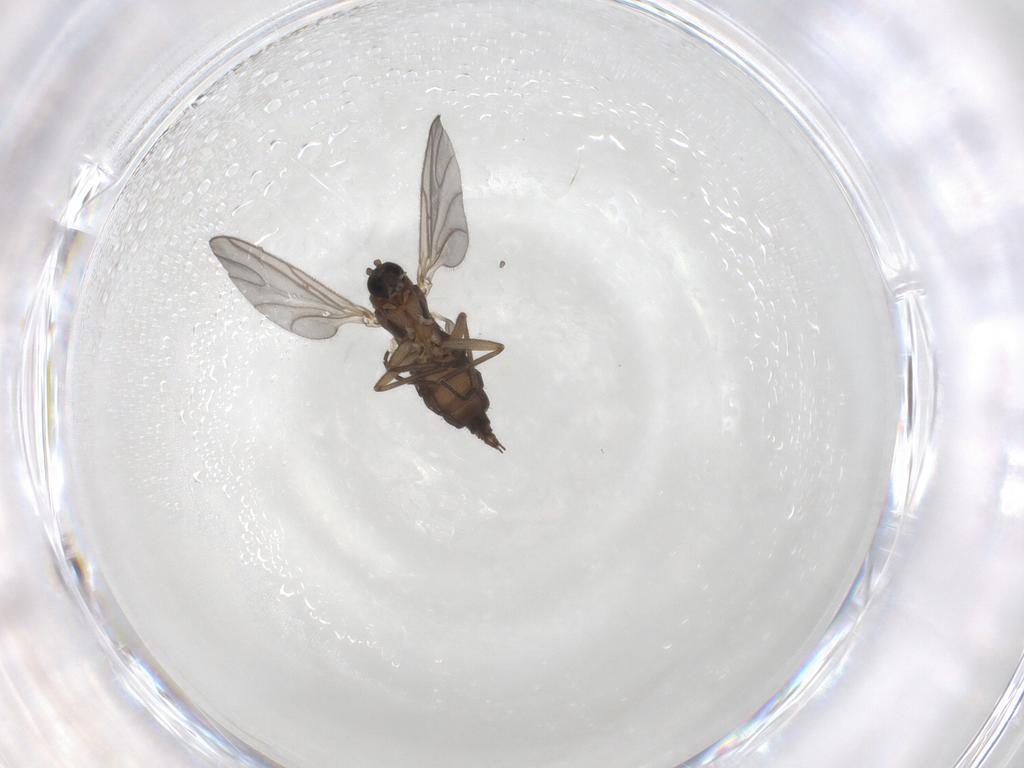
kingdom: Animalia
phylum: Arthropoda
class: Insecta
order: Diptera
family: Sciaridae
